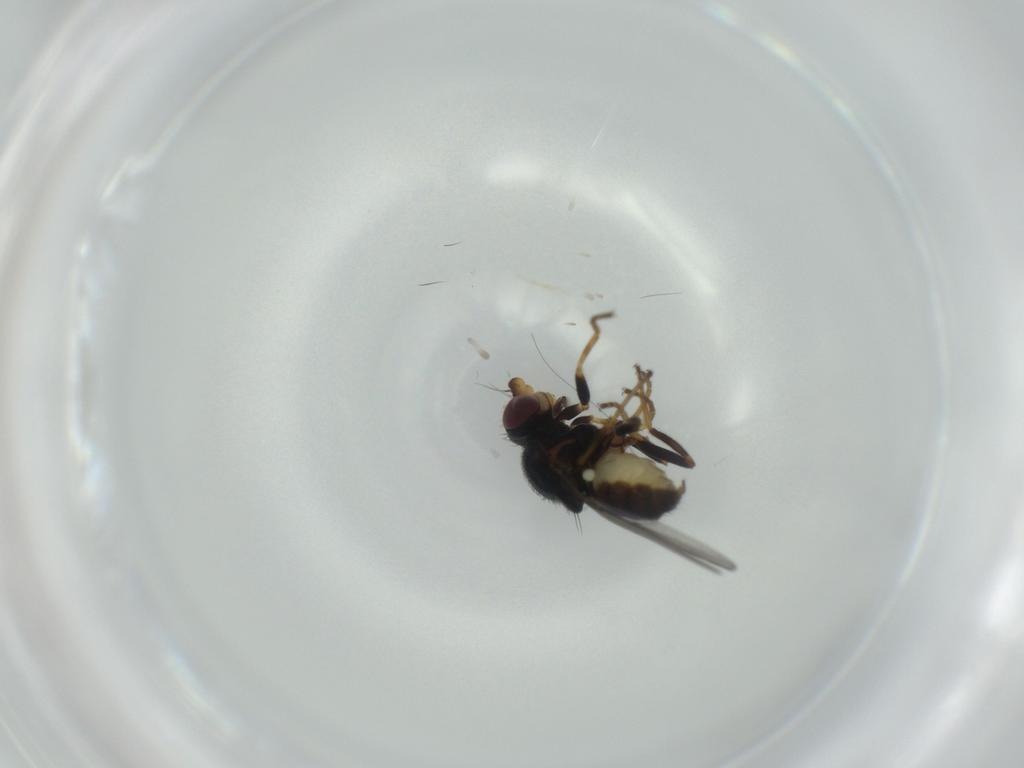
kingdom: Animalia
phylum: Arthropoda
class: Insecta
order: Diptera
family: Chloropidae
